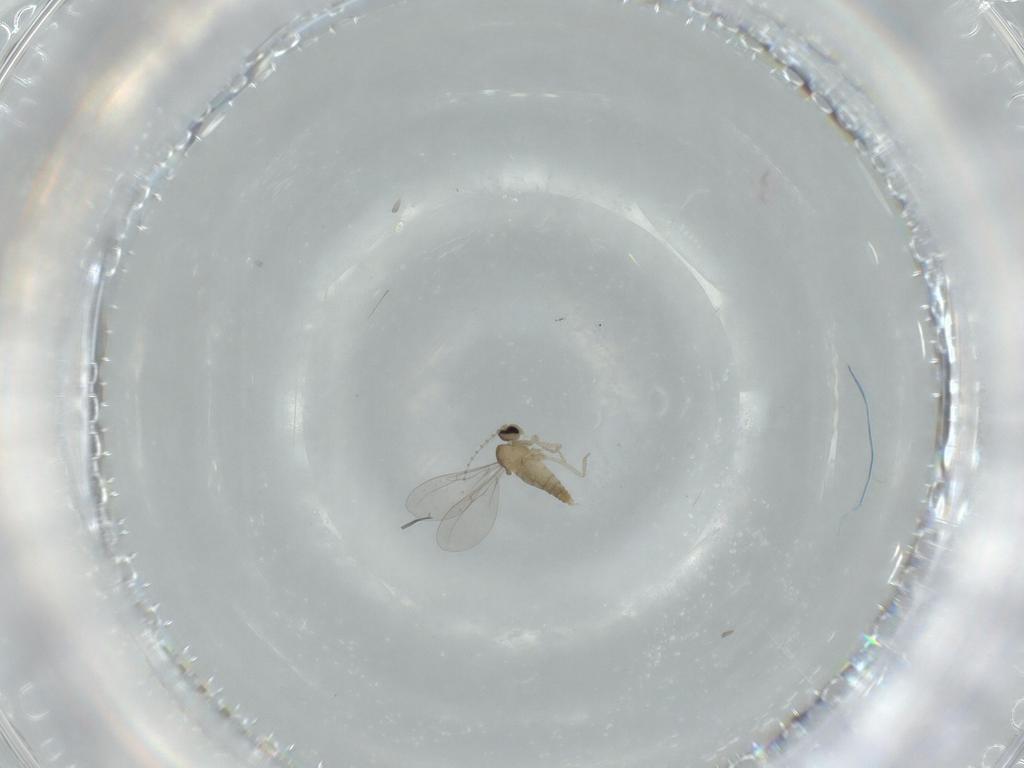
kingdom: Animalia
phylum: Arthropoda
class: Insecta
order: Diptera
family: Cecidomyiidae
